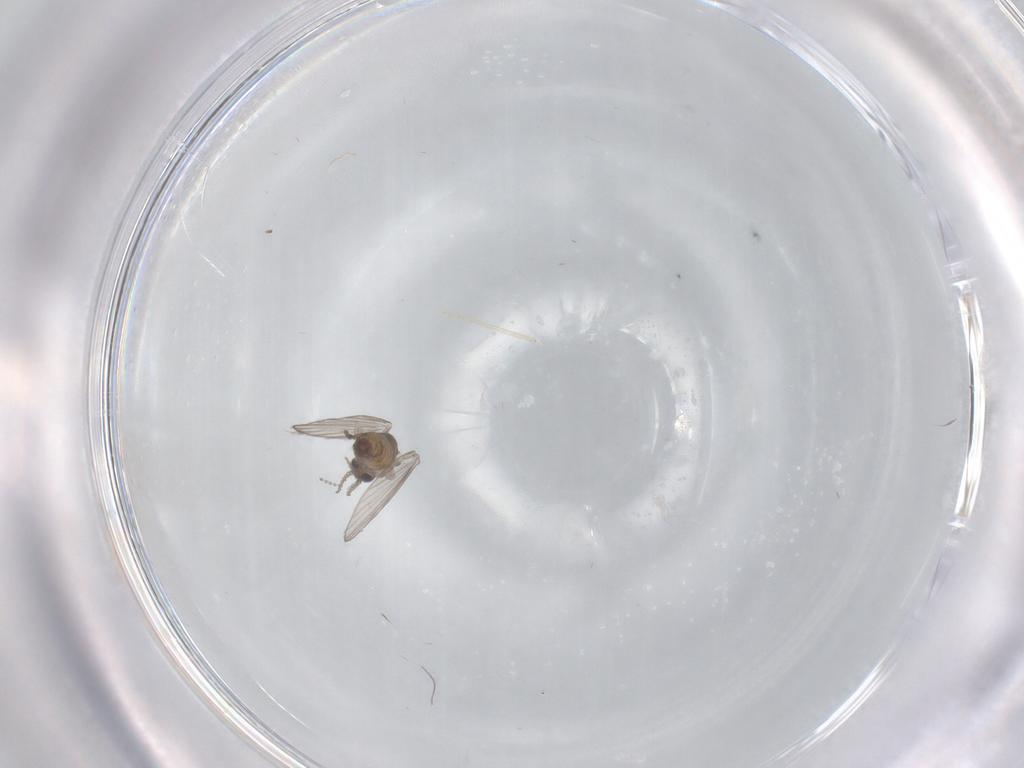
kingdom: Animalia
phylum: Arthropoda
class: Insecta
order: Diptera
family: Psychodidae
